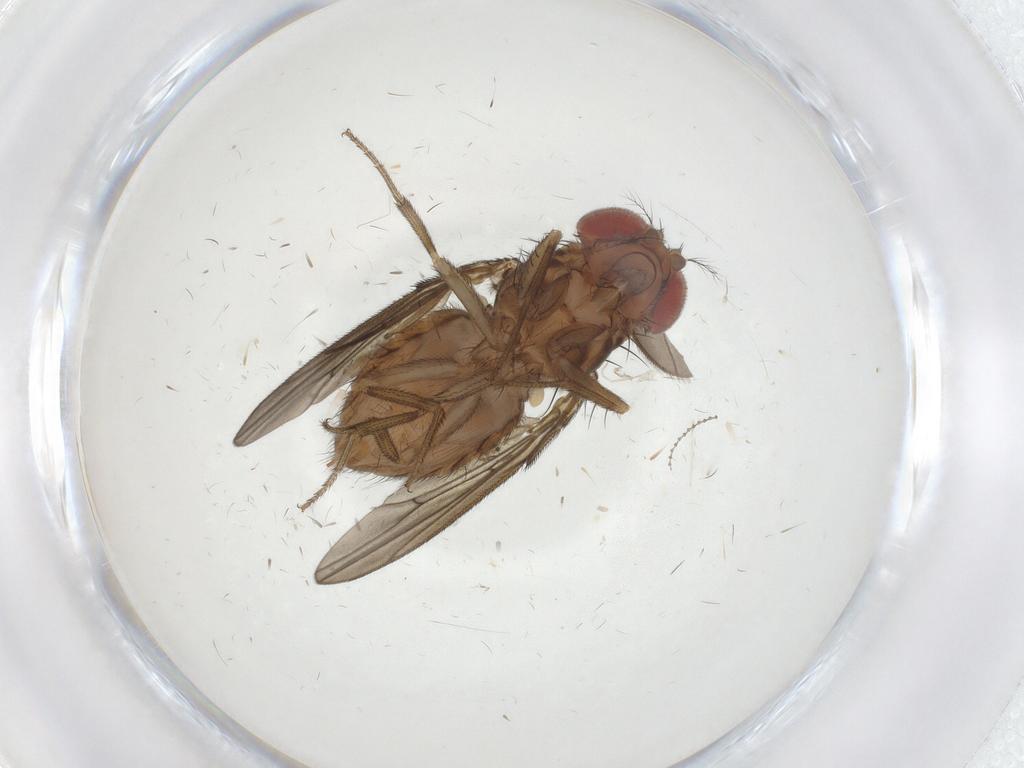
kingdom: Animalia
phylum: Arthropoda
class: Insecta
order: Diptera
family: Drosophilidae
